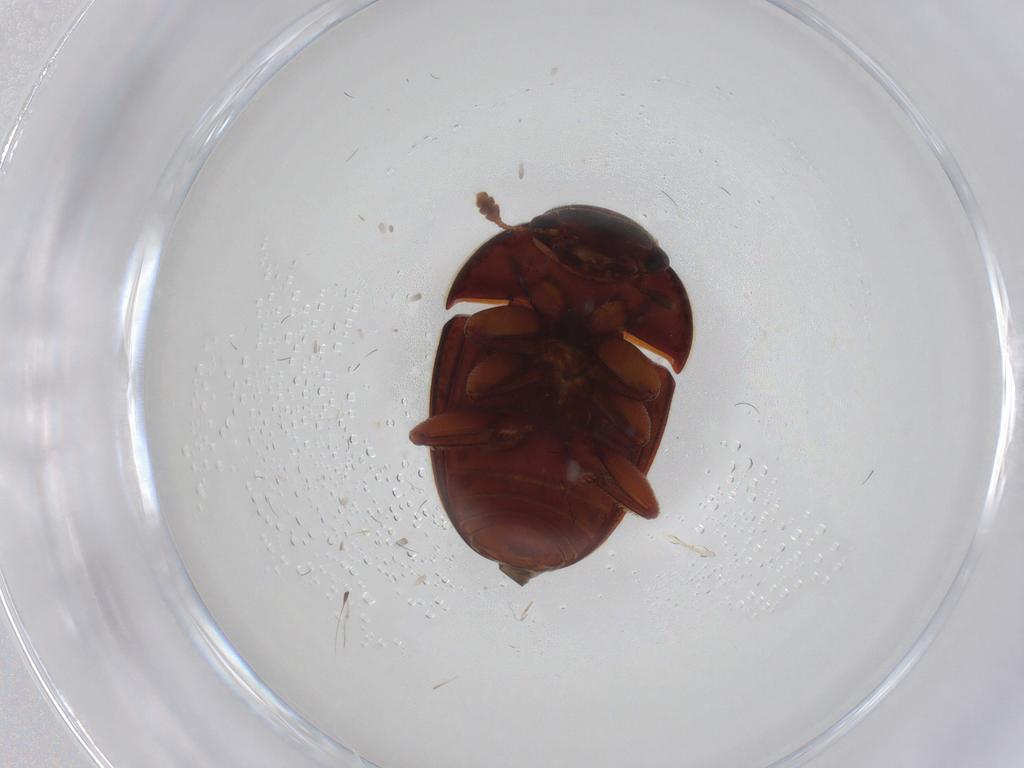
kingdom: Animalia
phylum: Arthropoda
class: Insecta
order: Coleoptera
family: Nitidulidae
